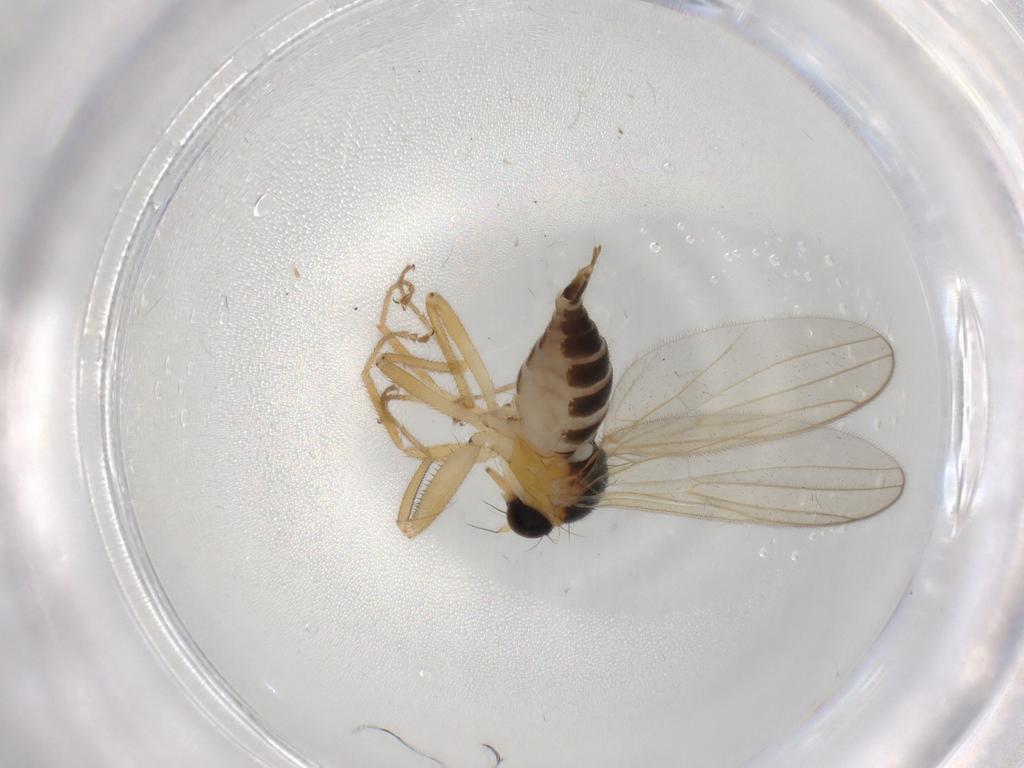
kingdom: Animalia
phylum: Arthropoda
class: Insecta
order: Diptera
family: Hybotidae
